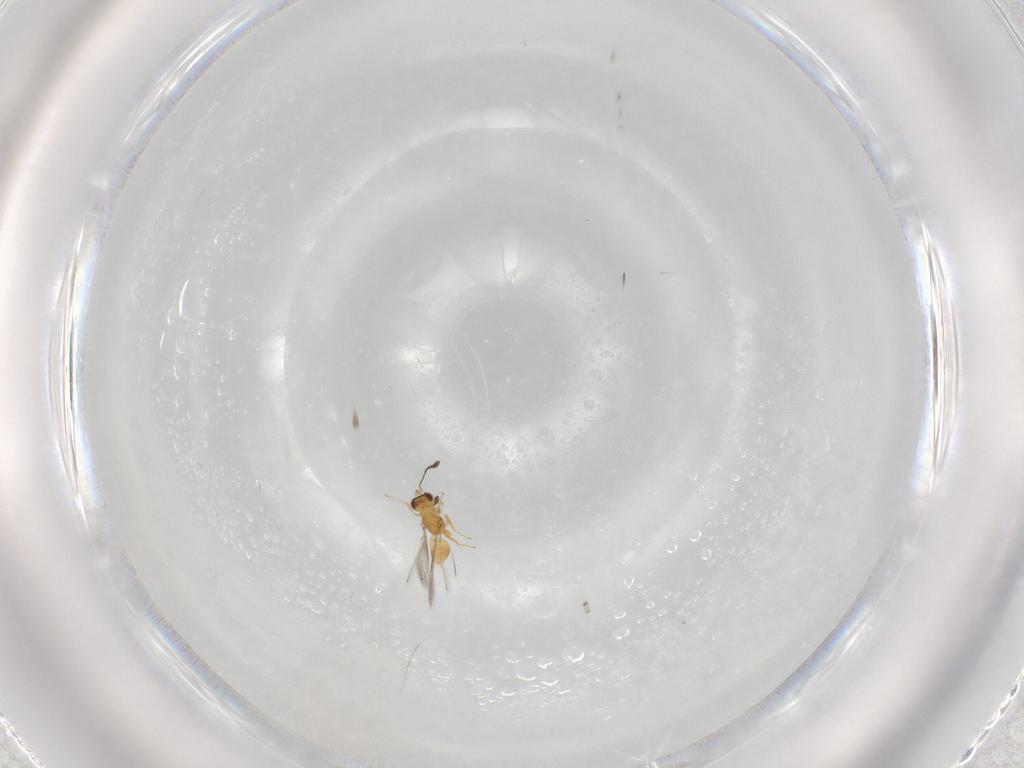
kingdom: Animalia
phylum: Arthropoda
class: Insecta
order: Hymenoptera
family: Mymaridae
